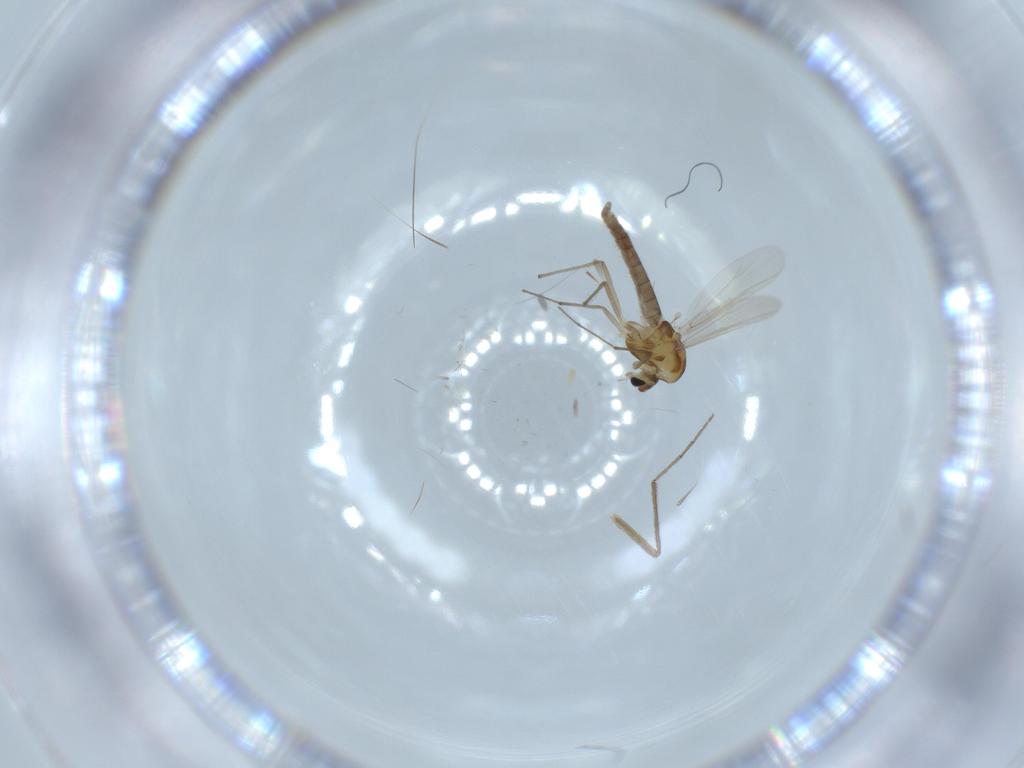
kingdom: Animalia
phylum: Arthropoda
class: Insecta
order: Diptera
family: Chironomidae
